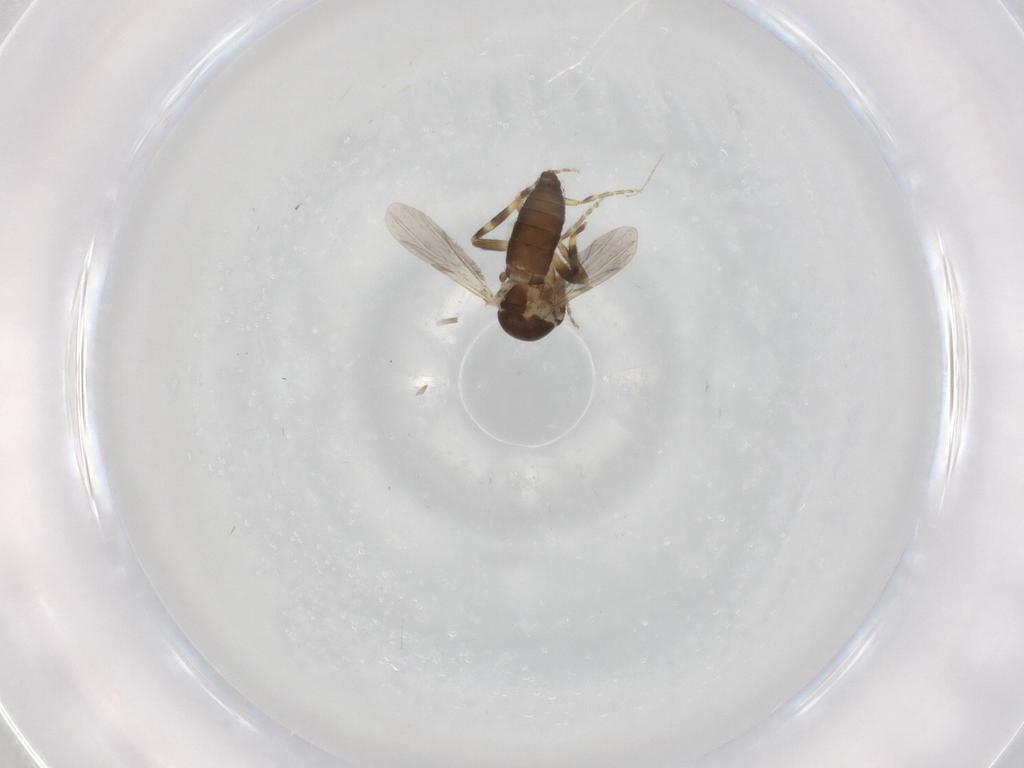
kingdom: Animalia
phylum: Arthropoda
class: Insecta
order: Diptera
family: Ceratopogonidae
